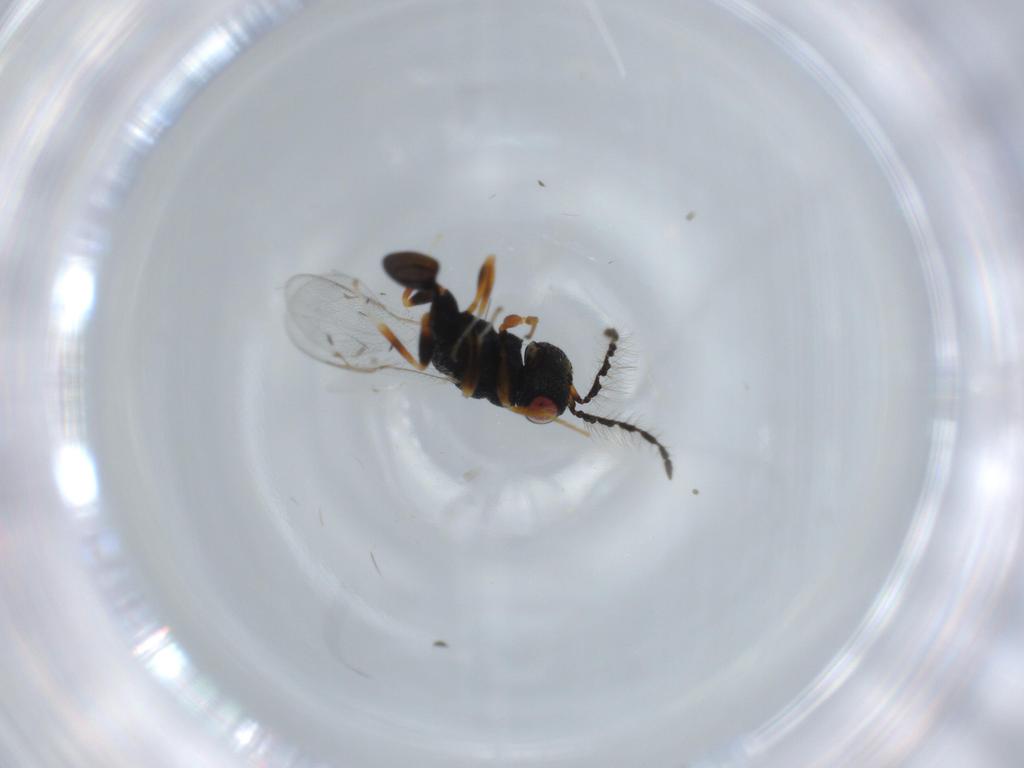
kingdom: Animalia
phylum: Arthropoda
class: Insecta
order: Hymenoptera
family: Eurytomidae
